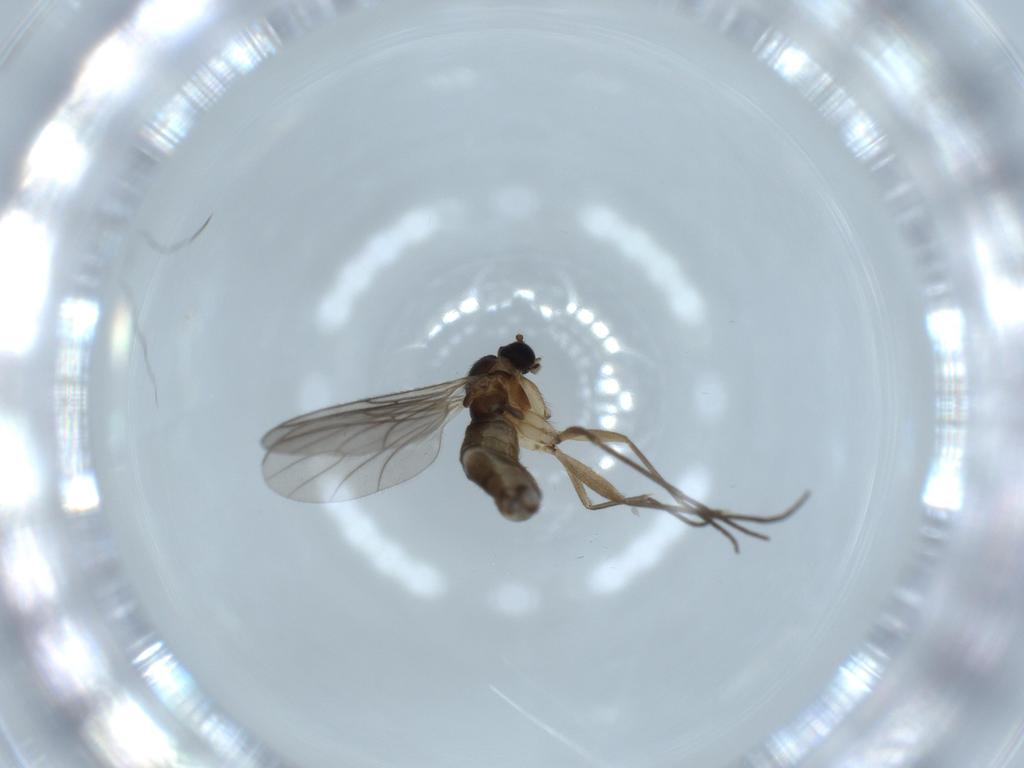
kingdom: Animalia
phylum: Arthropoda
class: Insecta
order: Diptera
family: Sciaridae
